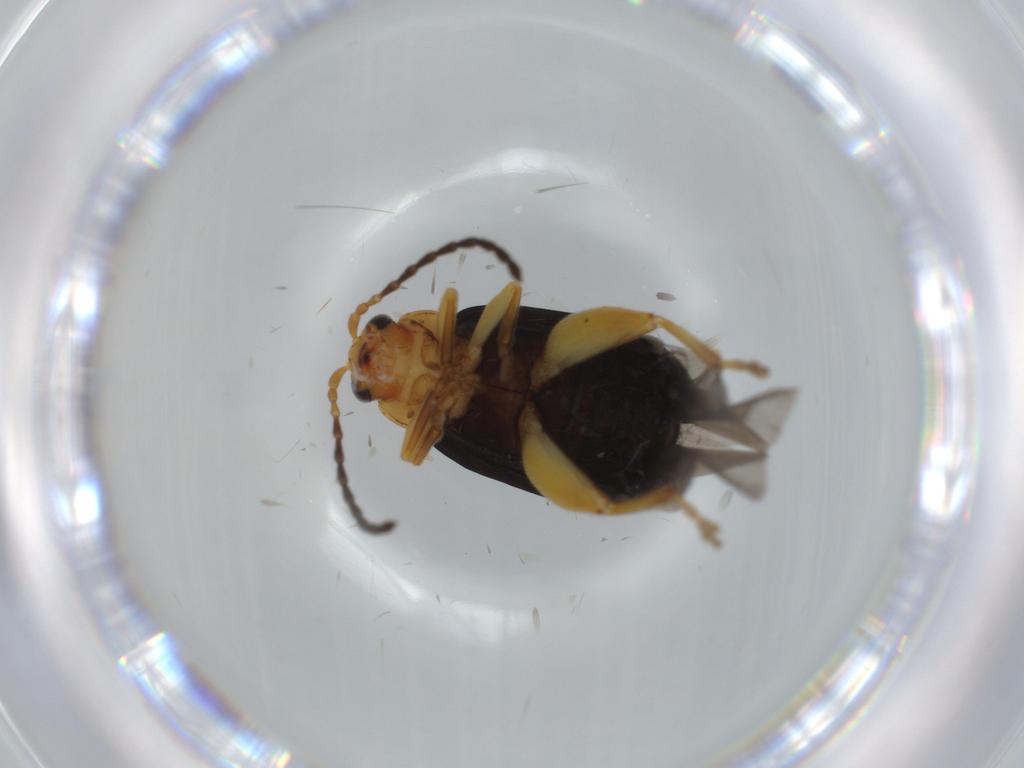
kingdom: Animalia
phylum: Arthropoda
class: Insecta
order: Coleoptera
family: Chrysomelidae
